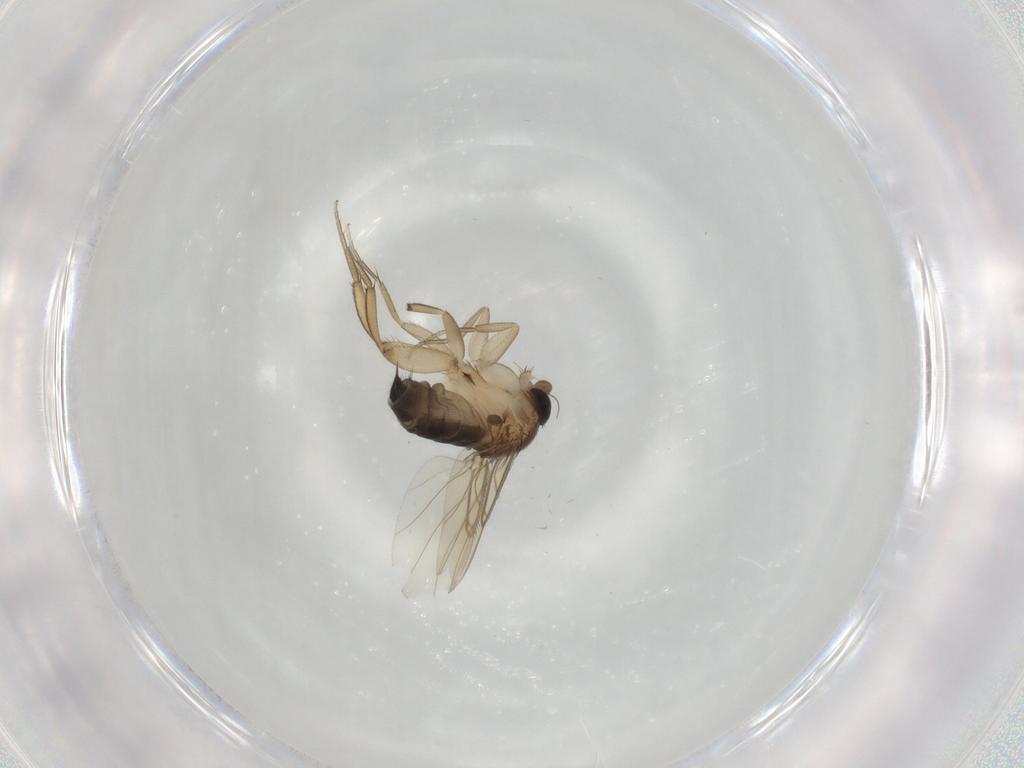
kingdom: Animalia
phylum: Arthropoda
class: Insecta
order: Diptera
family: Phoridae
